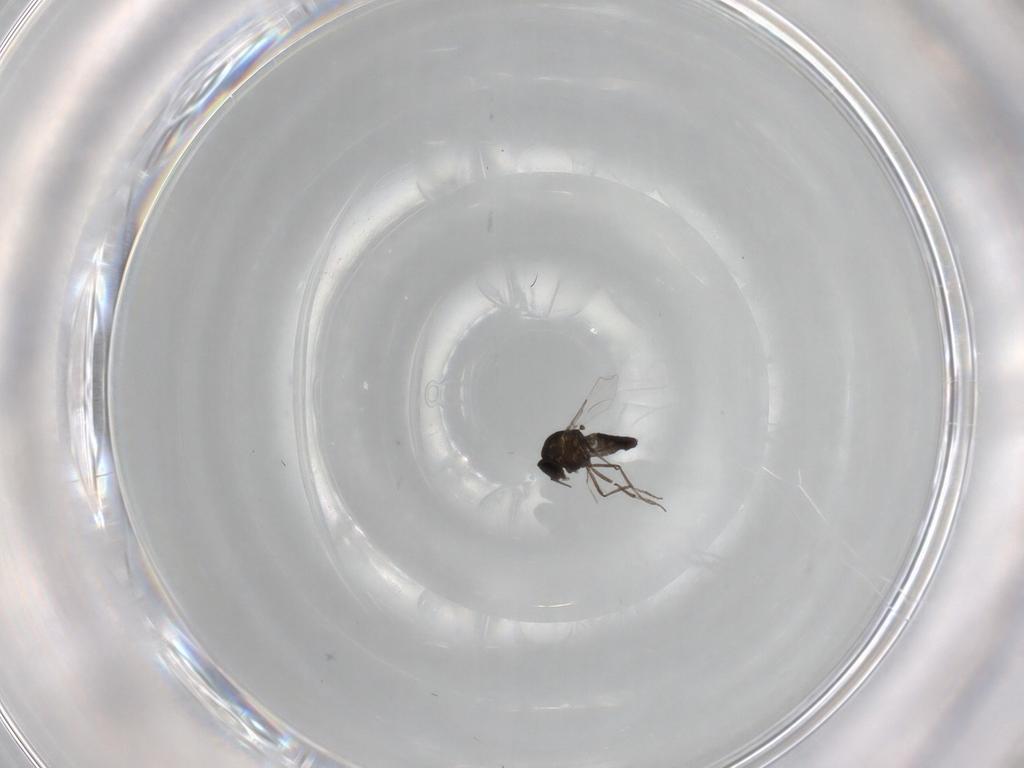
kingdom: Animalia
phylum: Arthropoda
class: Insecta
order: Diptera
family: Ceratopogonidae
